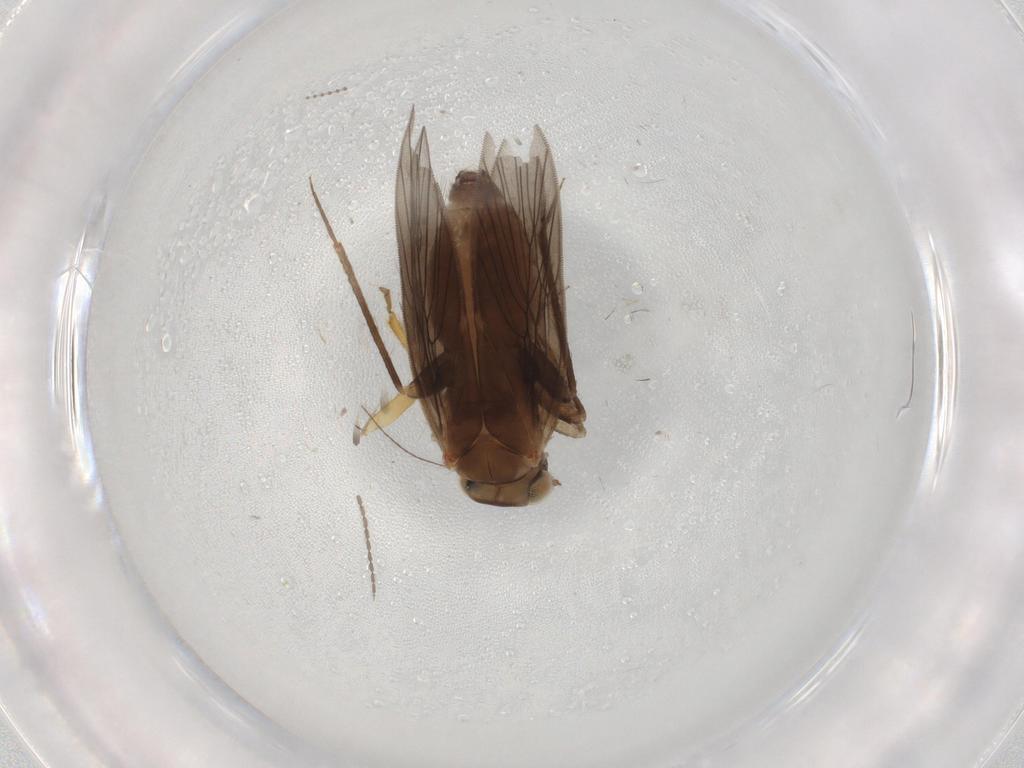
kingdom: Animalia
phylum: Arthropoda
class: Insecta
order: Psocodea
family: Lepidopsocidae
